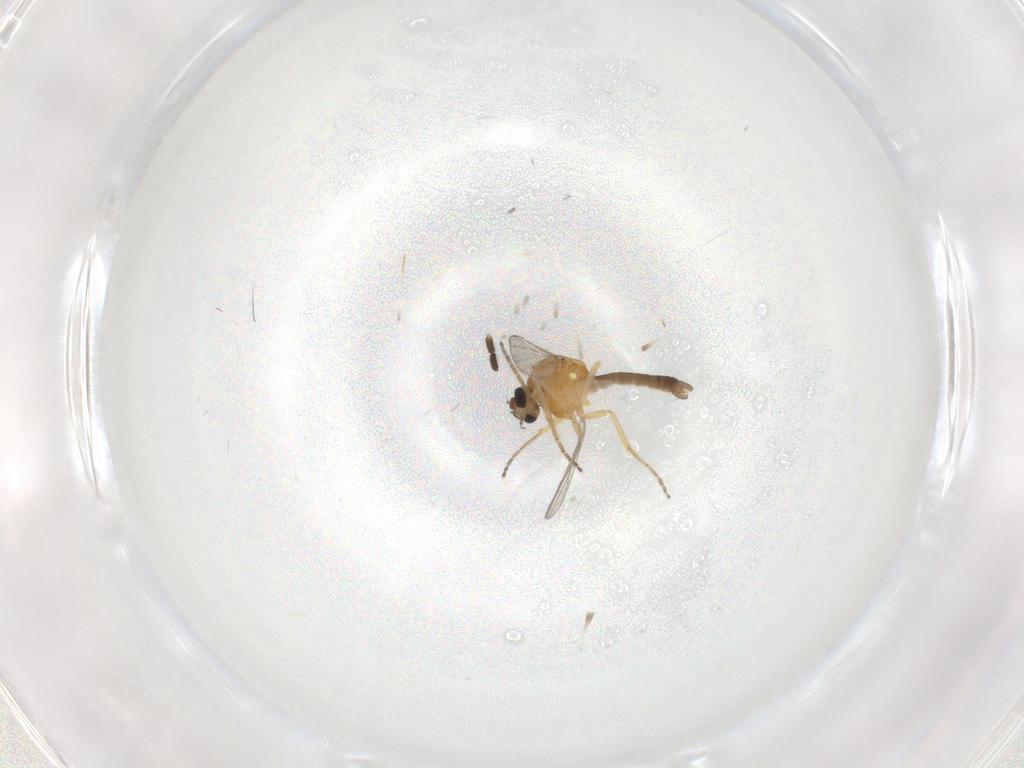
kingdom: Animalia
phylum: Arthropoda
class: Insecta
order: Diptera
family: Ceratopogonidae
